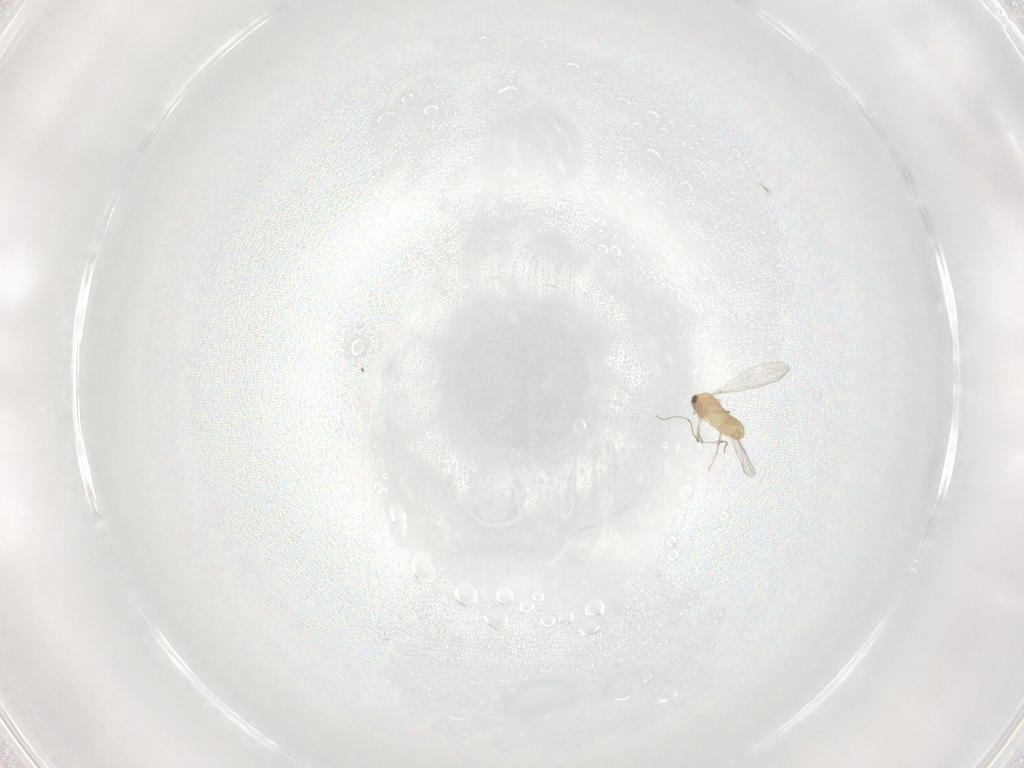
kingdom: Animalia
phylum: Arthropoda
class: Insecta
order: Diptera
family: Chironomidae
